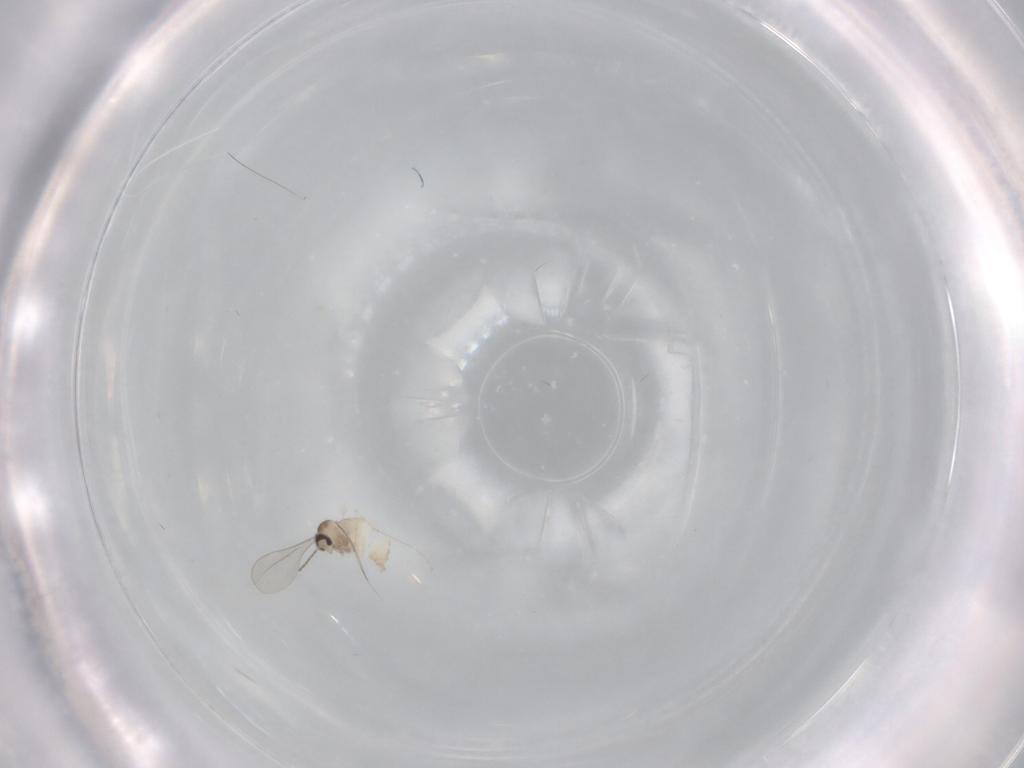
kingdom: Animalia
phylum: Arthropoda
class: Insecta
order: Diptera
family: Cecidomyiidae
